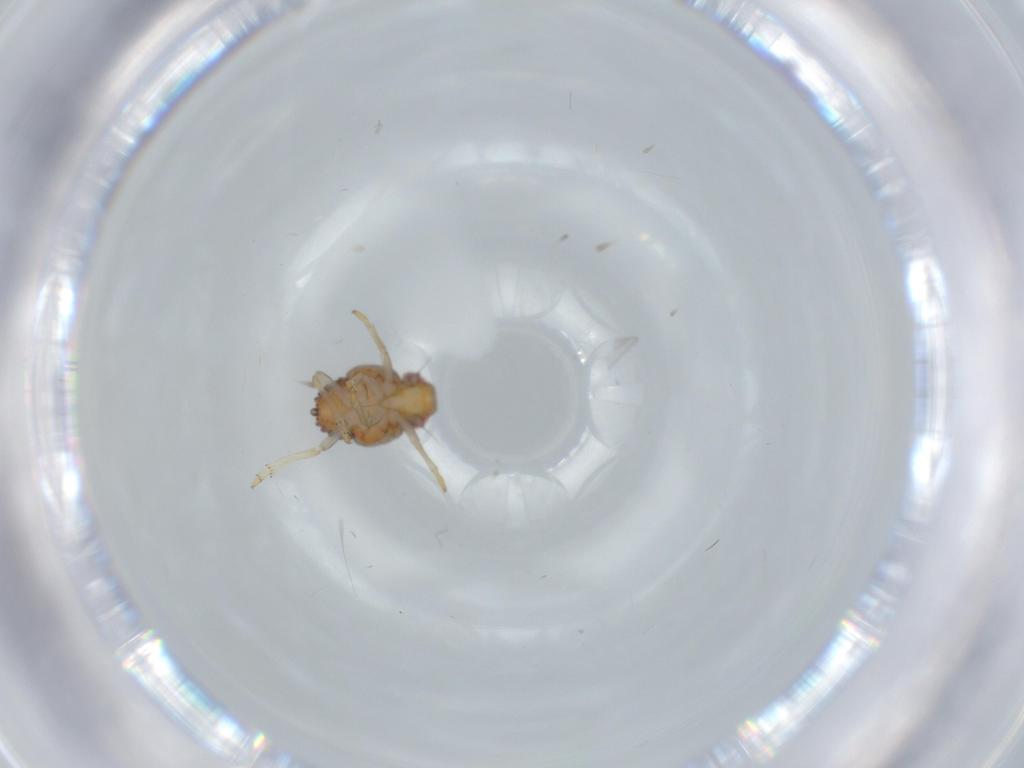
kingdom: Animalia
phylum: Arthropoda
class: Insecta
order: Hemiptera
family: Issidae
